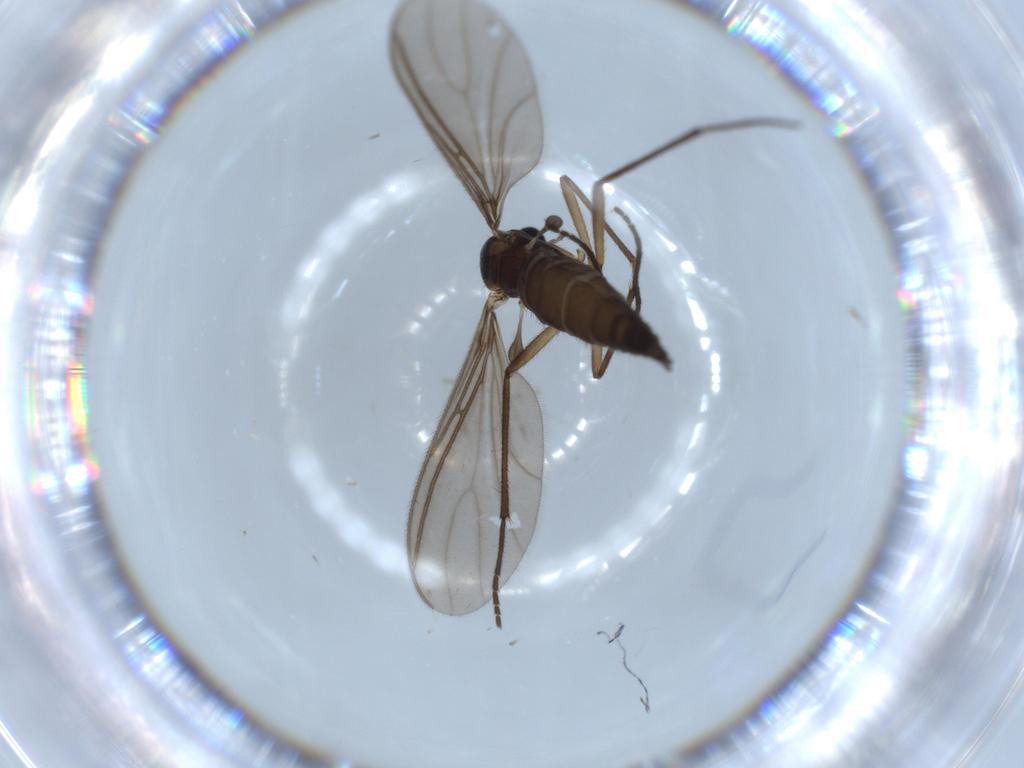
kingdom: Animalia
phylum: Arthropoda
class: Insecta
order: Diptera
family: Sciaridae
